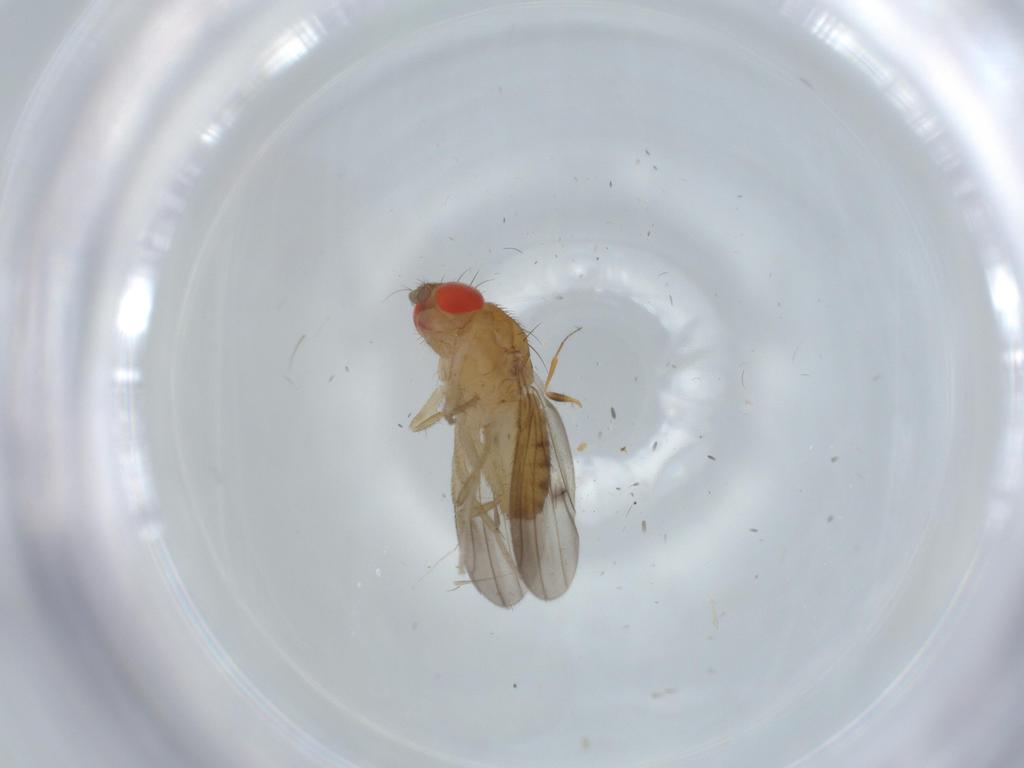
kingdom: Animalia
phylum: Arthropoda
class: Insecta
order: Diptera
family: Drosophilidae
